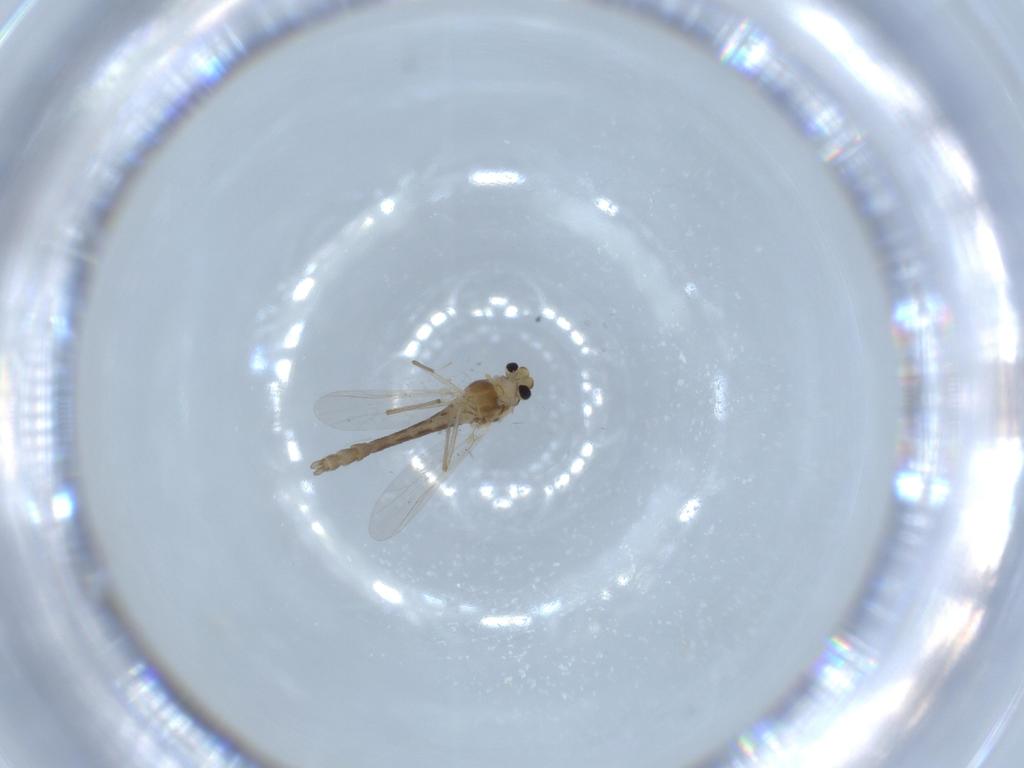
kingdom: Animalia
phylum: Arthropoda
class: Insecta
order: Diptera
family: Chironomidae
